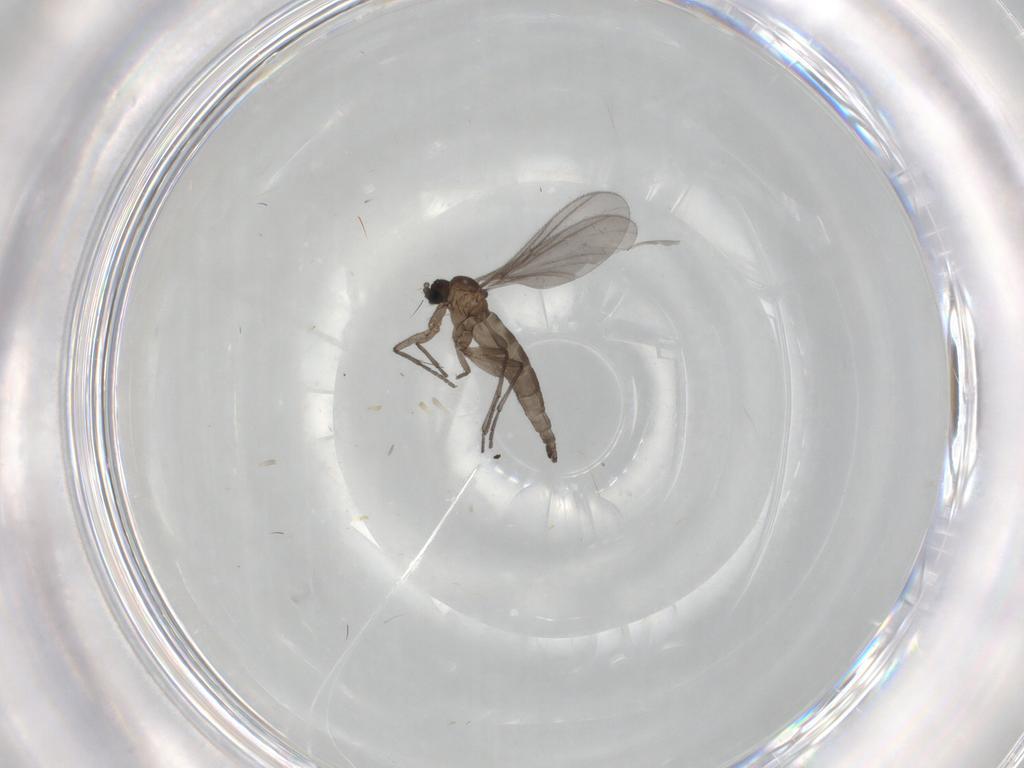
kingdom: Animalia
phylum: Arthropoda
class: Insecta
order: Diptera
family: Sciaridae
